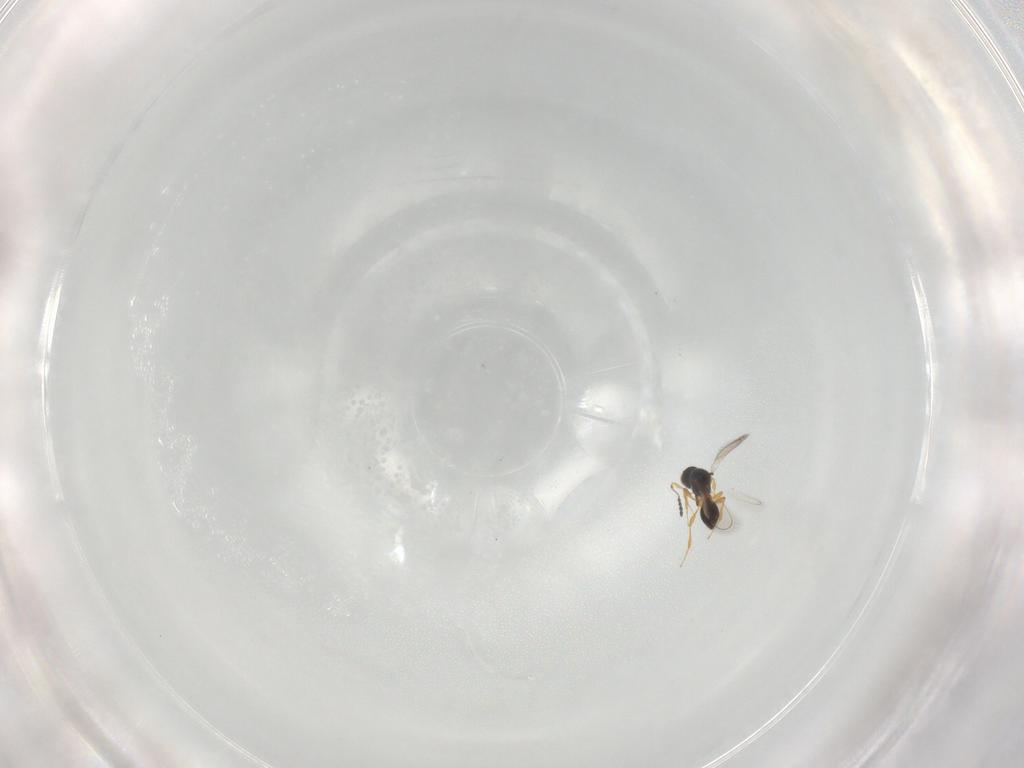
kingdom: Animalia
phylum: Arthropoda
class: Insecta
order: Hymenoptera
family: Platygastridae
